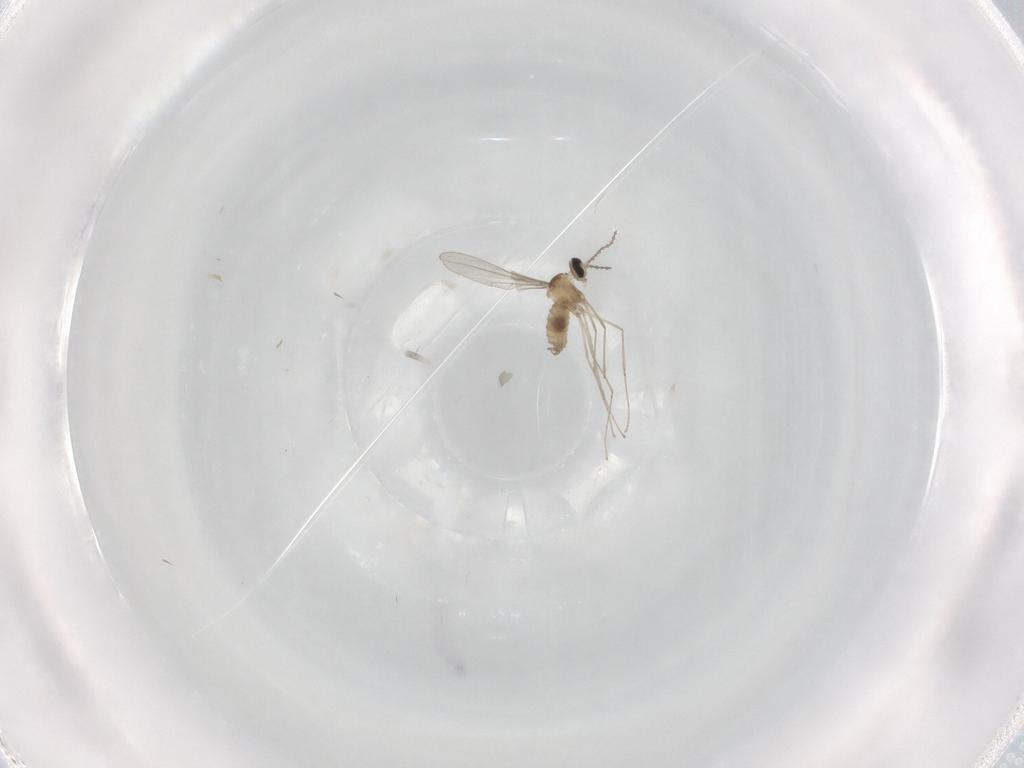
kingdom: Animalia
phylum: Arthropoda
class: Insecta
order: Diptera
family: Cecidomyiidae
